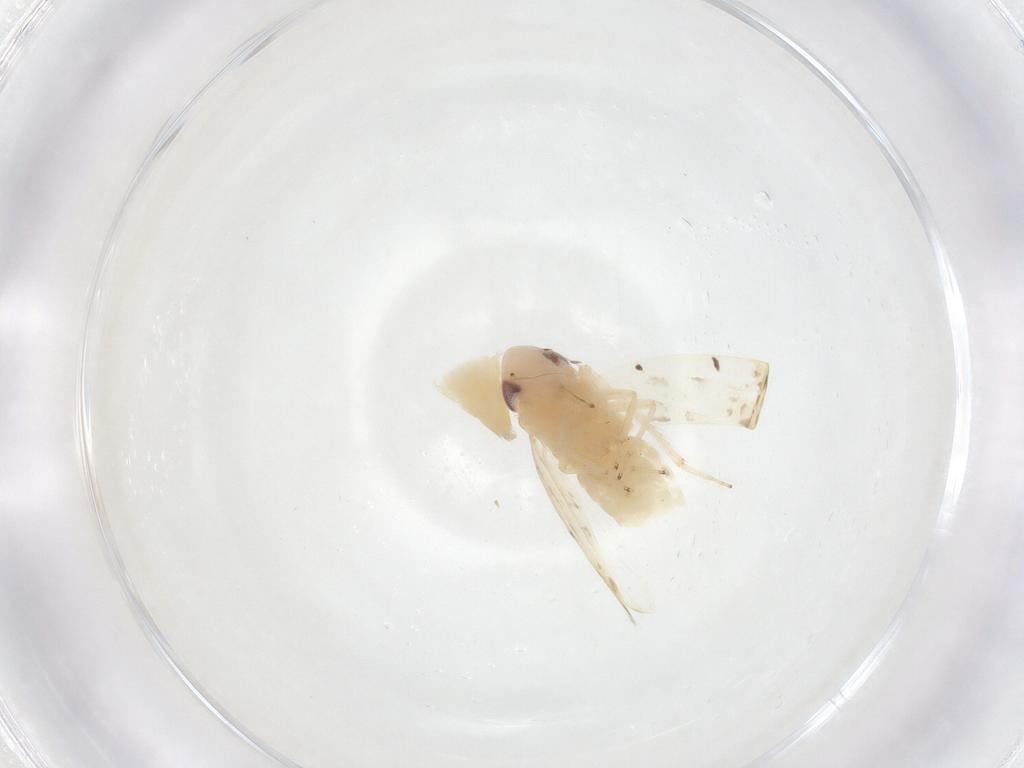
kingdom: Animalia
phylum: Arthropoda
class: Insecta
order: Hemiptera
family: Cicadellidae
